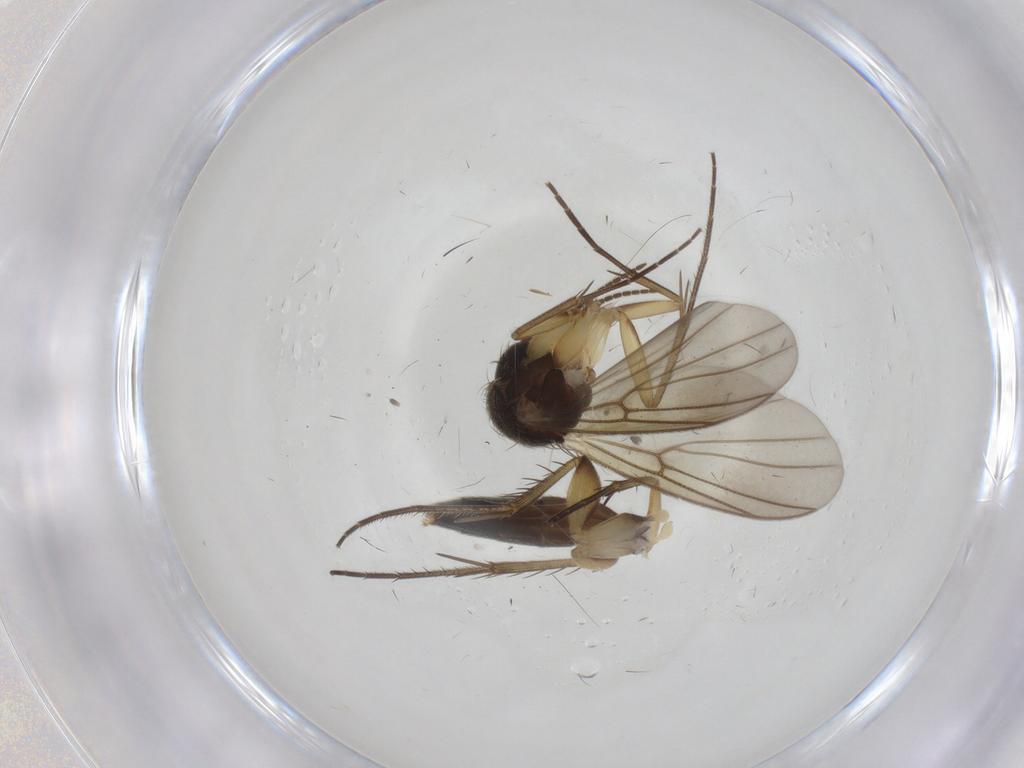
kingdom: Animalia
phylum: Arthropoda
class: Insecta
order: Diptera
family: Mycetophilidae
